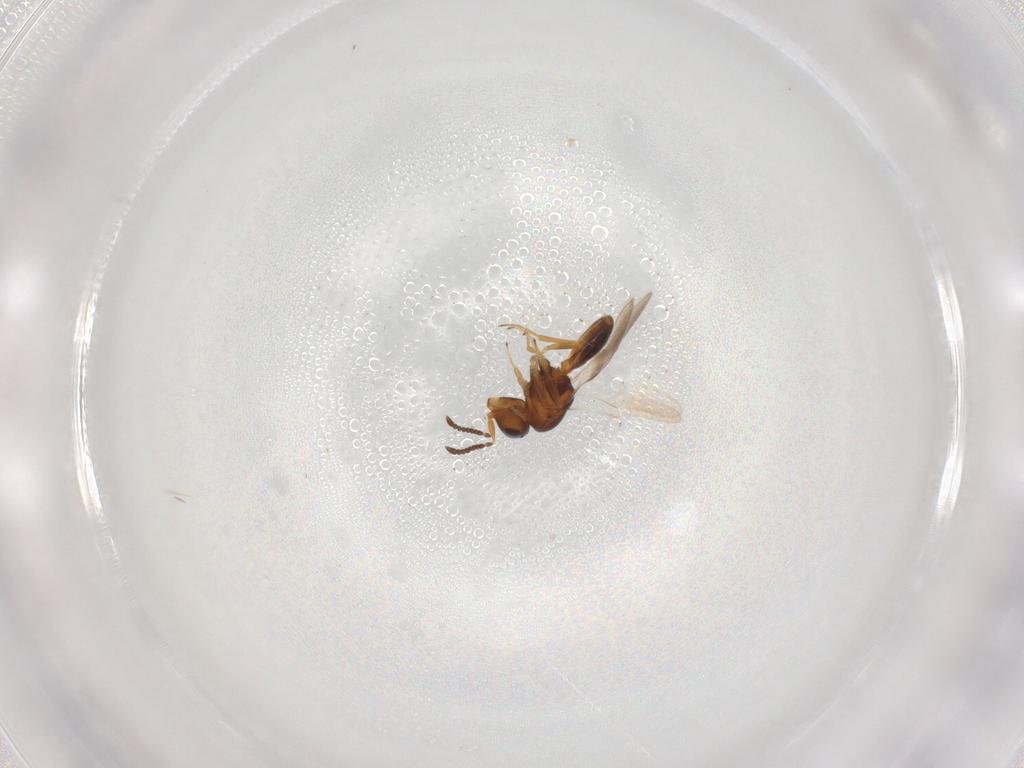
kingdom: Animalia
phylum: Arthropoda
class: Insecta
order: Hymenoptera
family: Scelionidae
